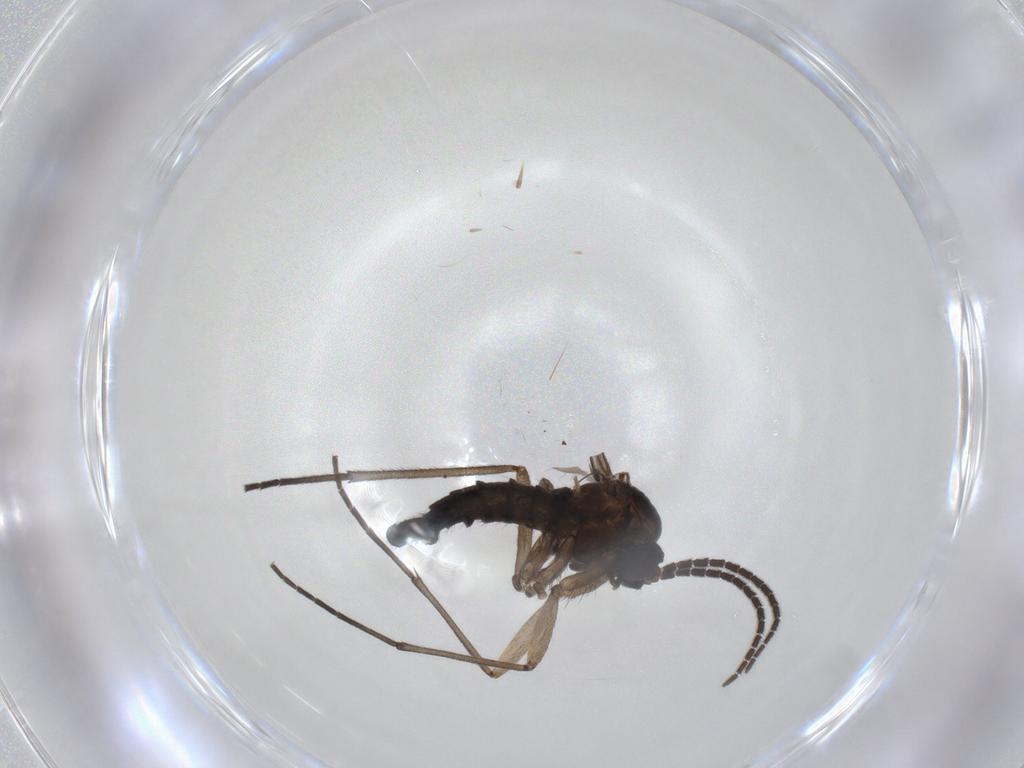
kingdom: Animalia
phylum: Arthropoda
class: Insecta
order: Diptera
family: Sciaridae
